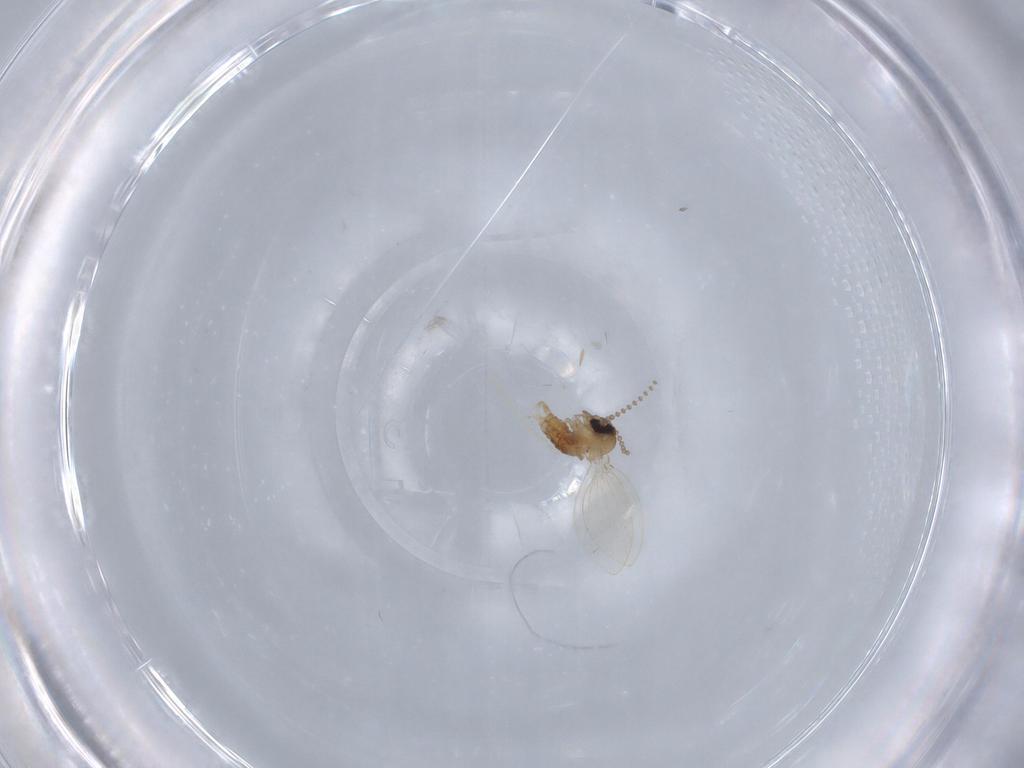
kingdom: Animalia
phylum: Arthropoda
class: Insecta
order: Diptera
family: Psychodidae
